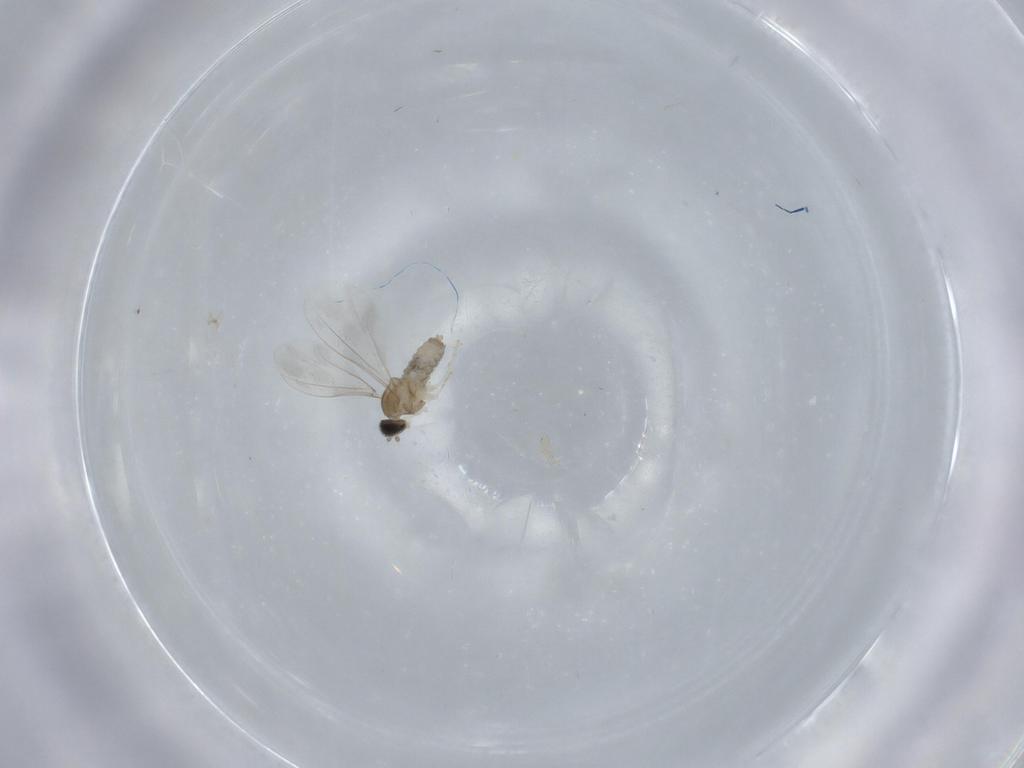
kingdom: Animalia
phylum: Arthropoda
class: Insecta
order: Diptera
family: Cecidomyiidae
